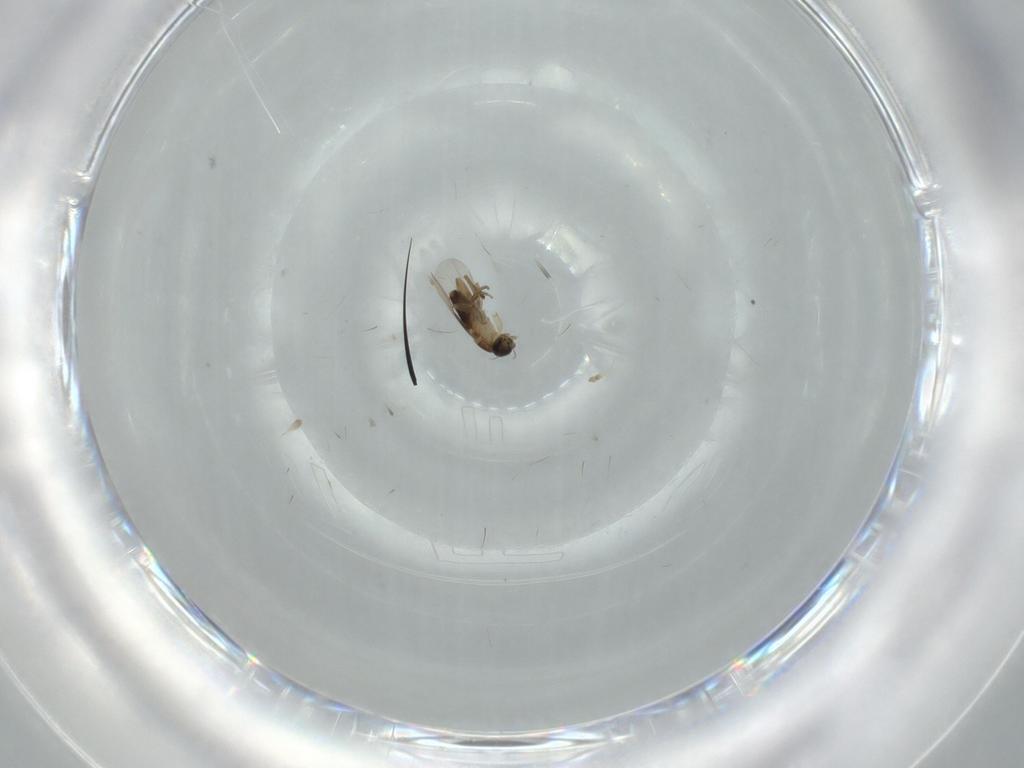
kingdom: Animalia
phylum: Arthropoda
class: Insecta
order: Diptera
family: Phoridae
